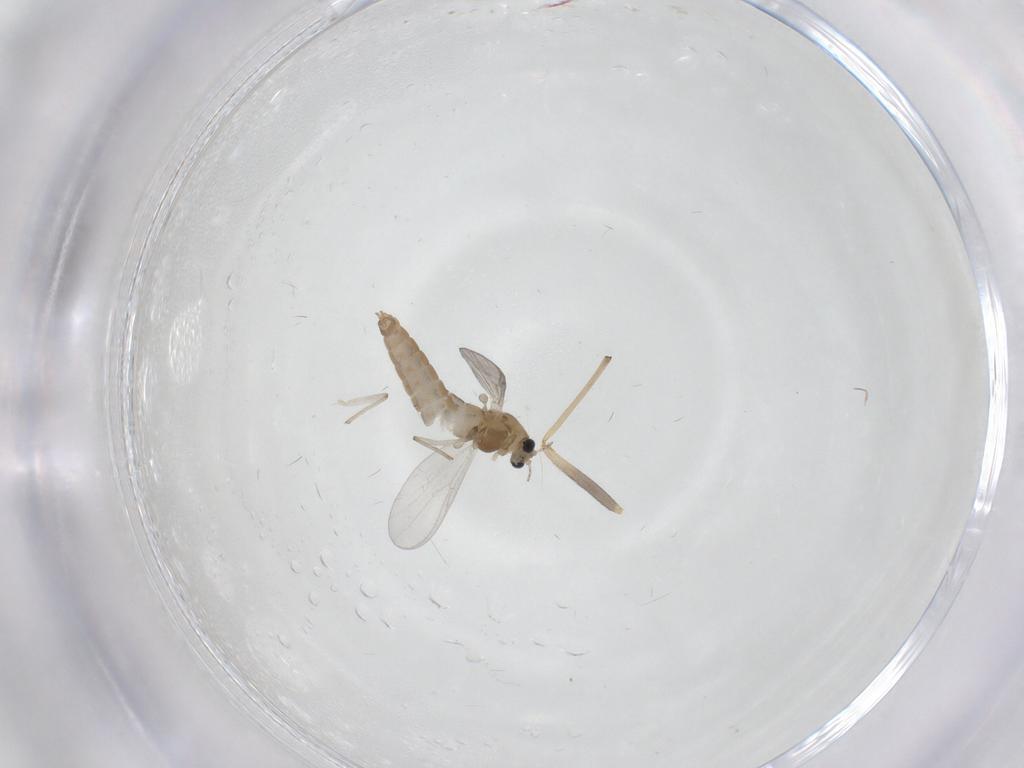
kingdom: Animalia
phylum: Arthropoda
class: Insecta
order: Diptera
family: Chironomidae
